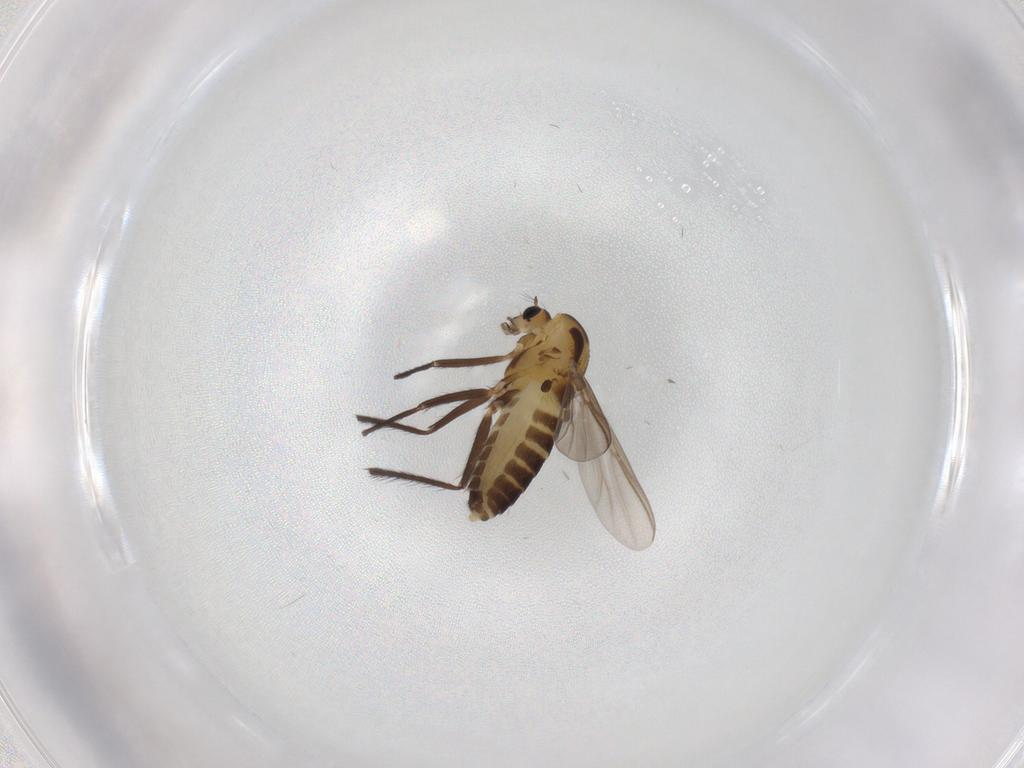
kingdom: Animalia
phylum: Arthropoda
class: Insecta
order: Diptera
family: Chironomidae
